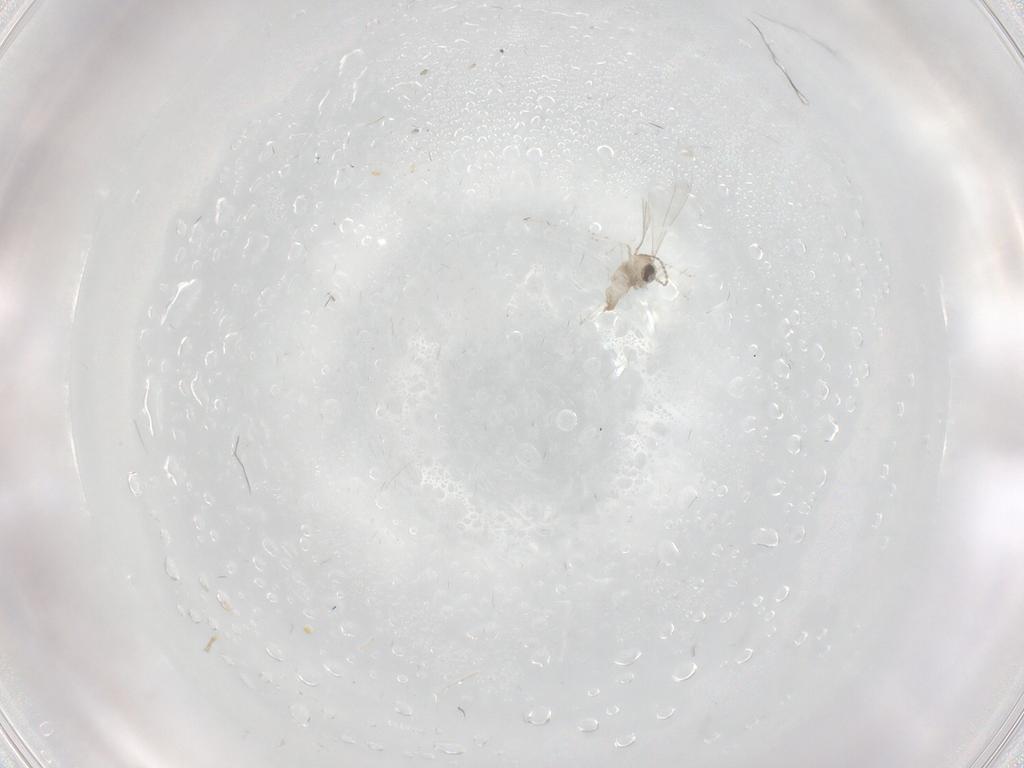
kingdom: Animalia
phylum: Arthropoda
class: Insecta
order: Diptera
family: Cecidomyiidae
